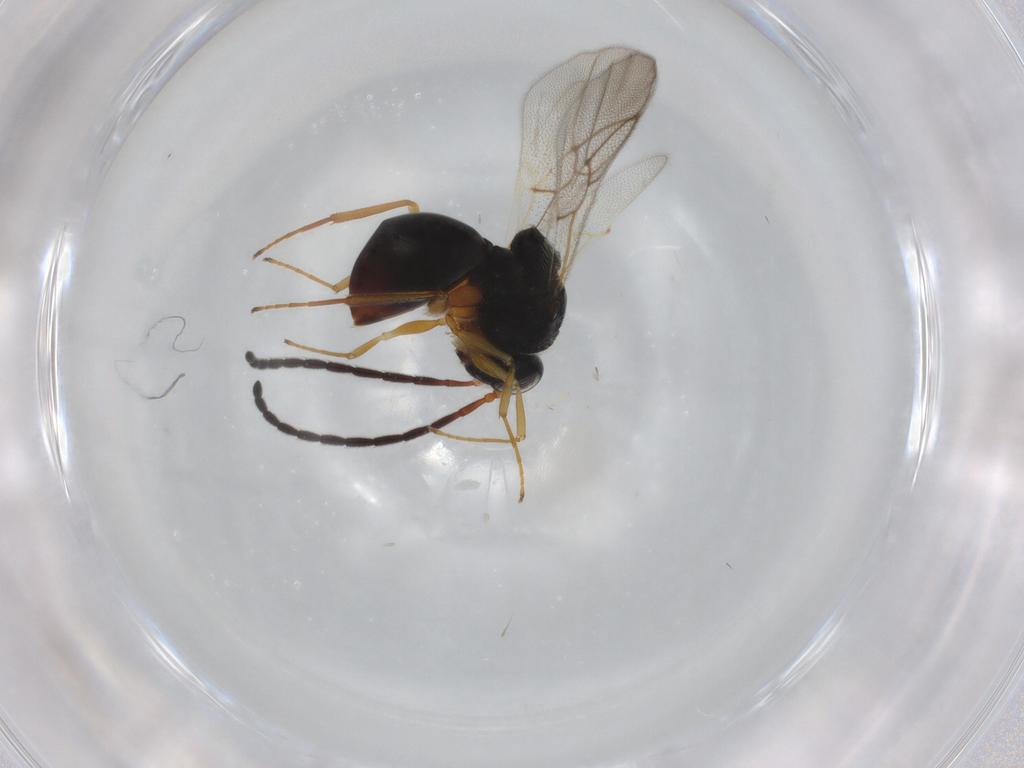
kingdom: Animalia
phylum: Arthropoda
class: Insecta
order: Hymenoptera
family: Figitidae
